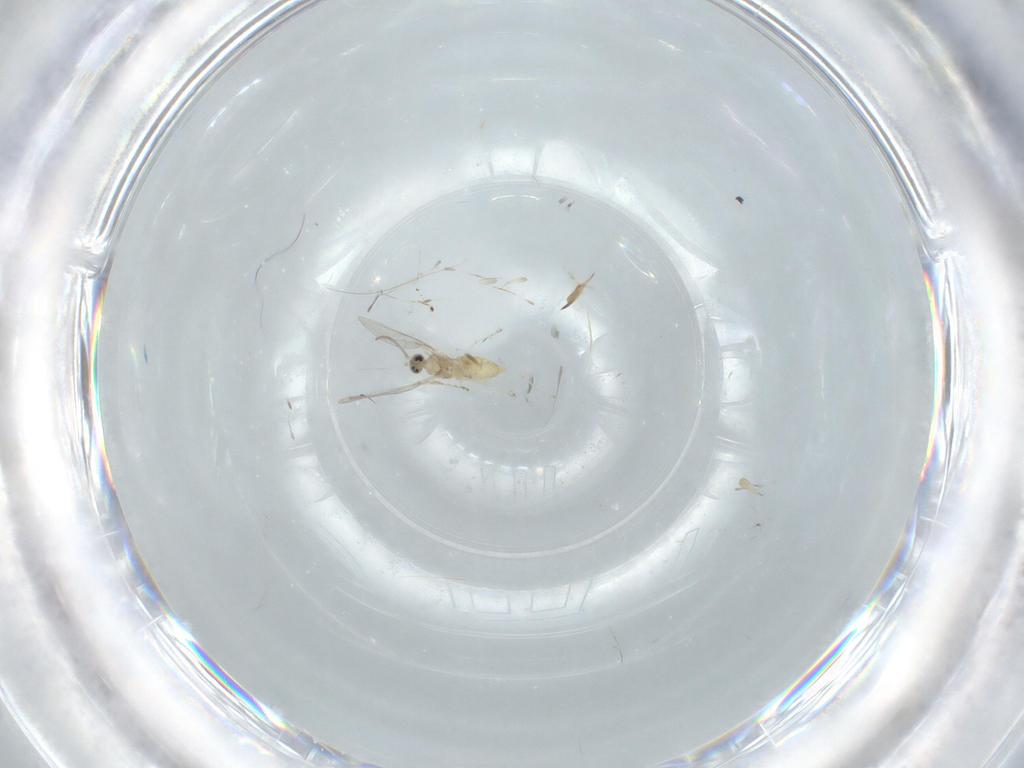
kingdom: Animalia
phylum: Arthropoda
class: Insecta
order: Diptera
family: Cecidomyiidae
